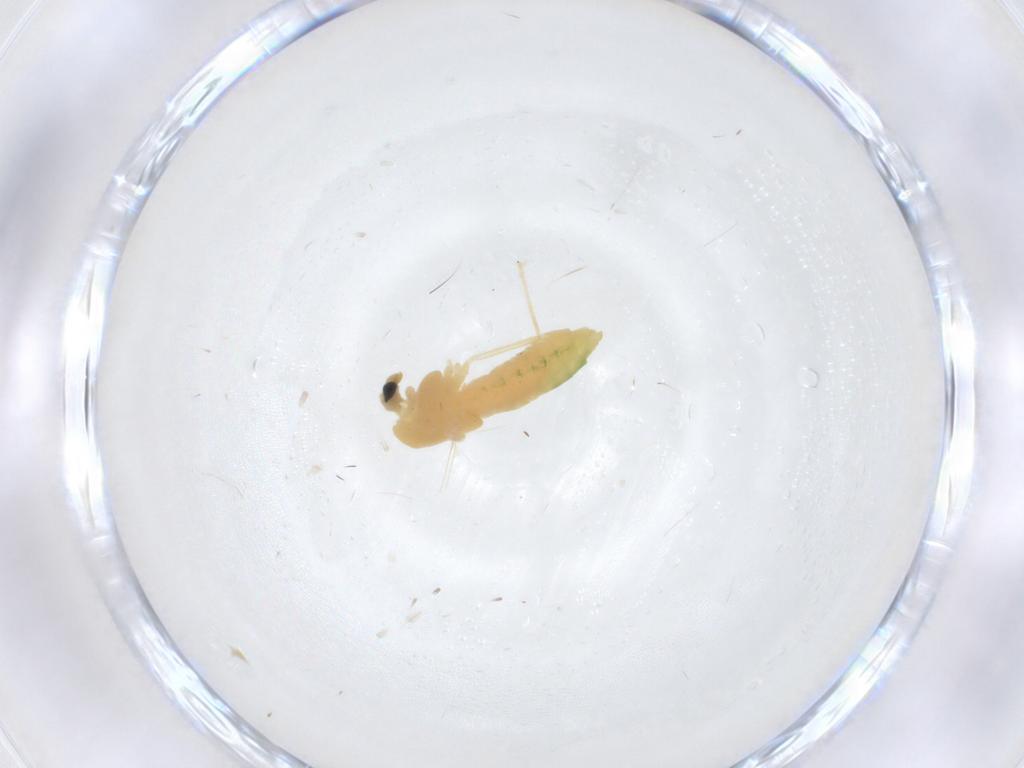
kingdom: Animalia
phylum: Arthropoda
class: Insecta
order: Diptera
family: Chironomidae
